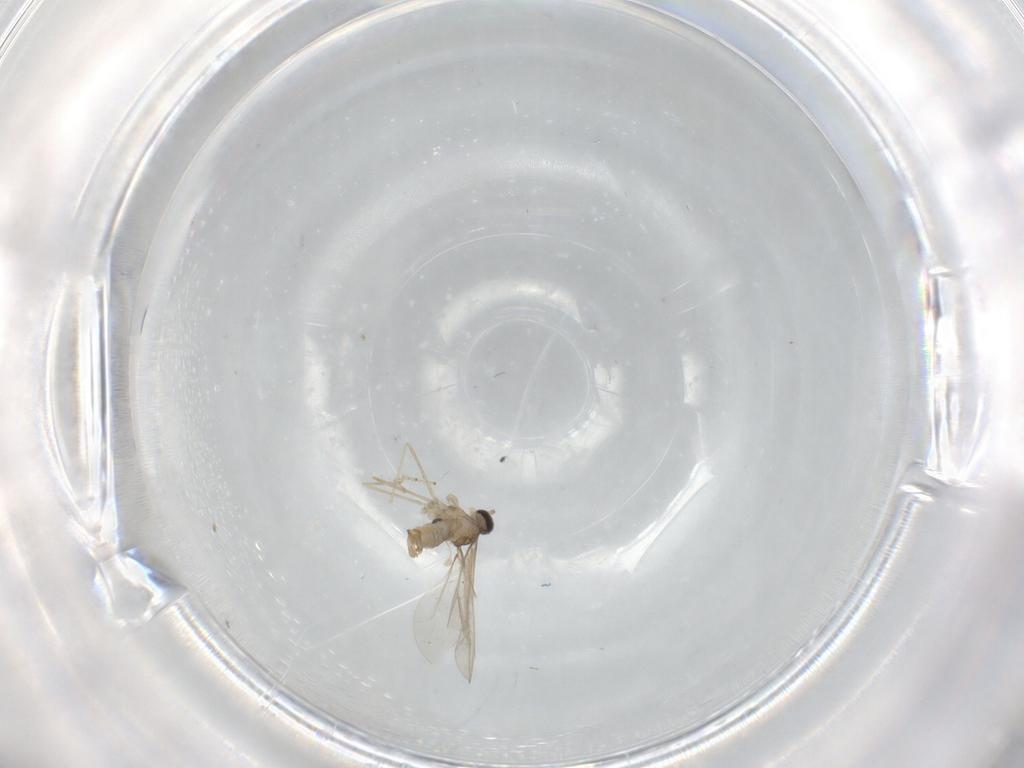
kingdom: Animalia
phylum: Arthropoda
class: Insecta
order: Diptera
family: Cecidomyiidae
